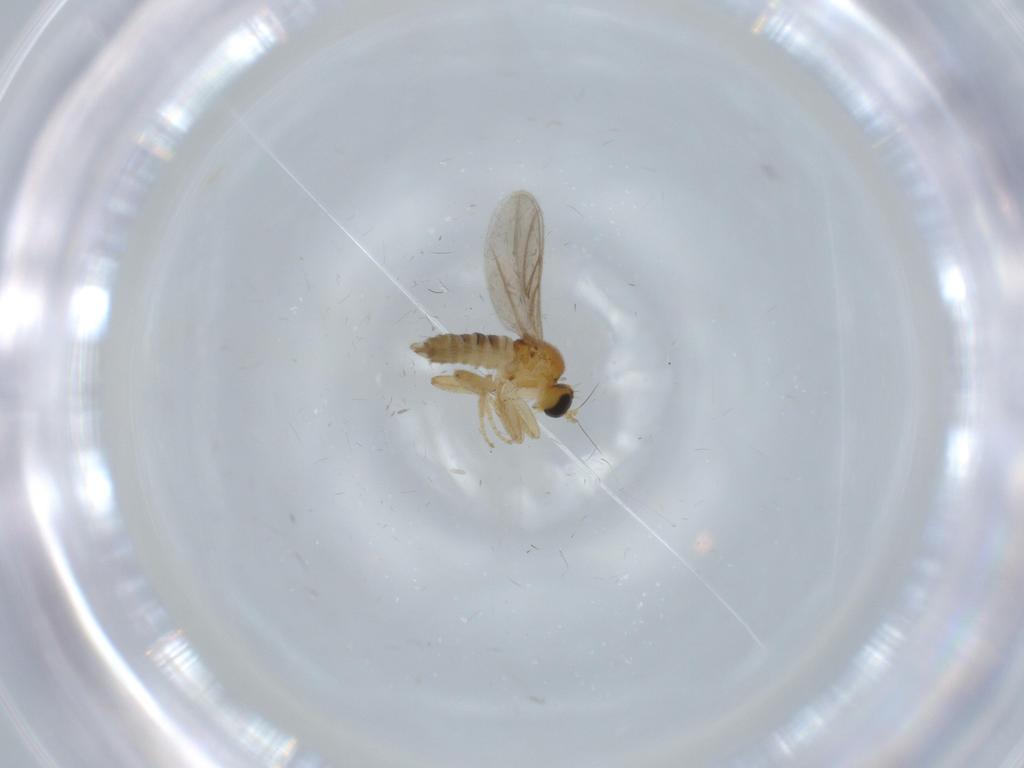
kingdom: Animalia
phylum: Arthropoda
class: Insecta
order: Diptera
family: Hybotidae
